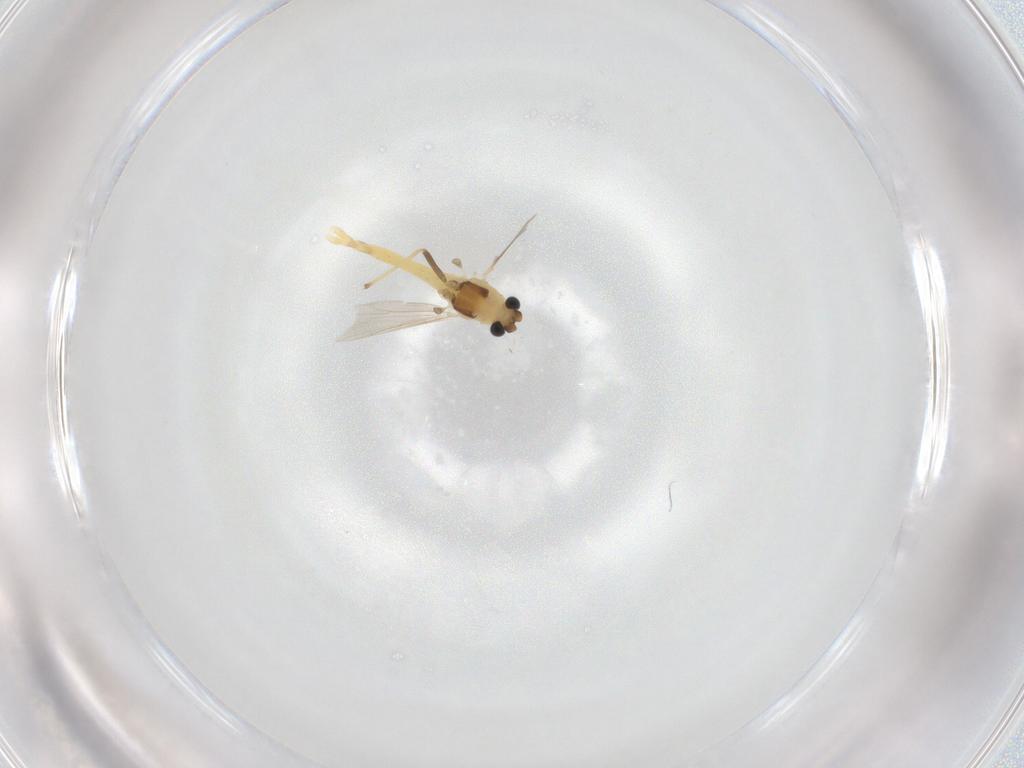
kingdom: Animalia
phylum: Arthropoda
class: Insecta
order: Diptera
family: Chironomidae
